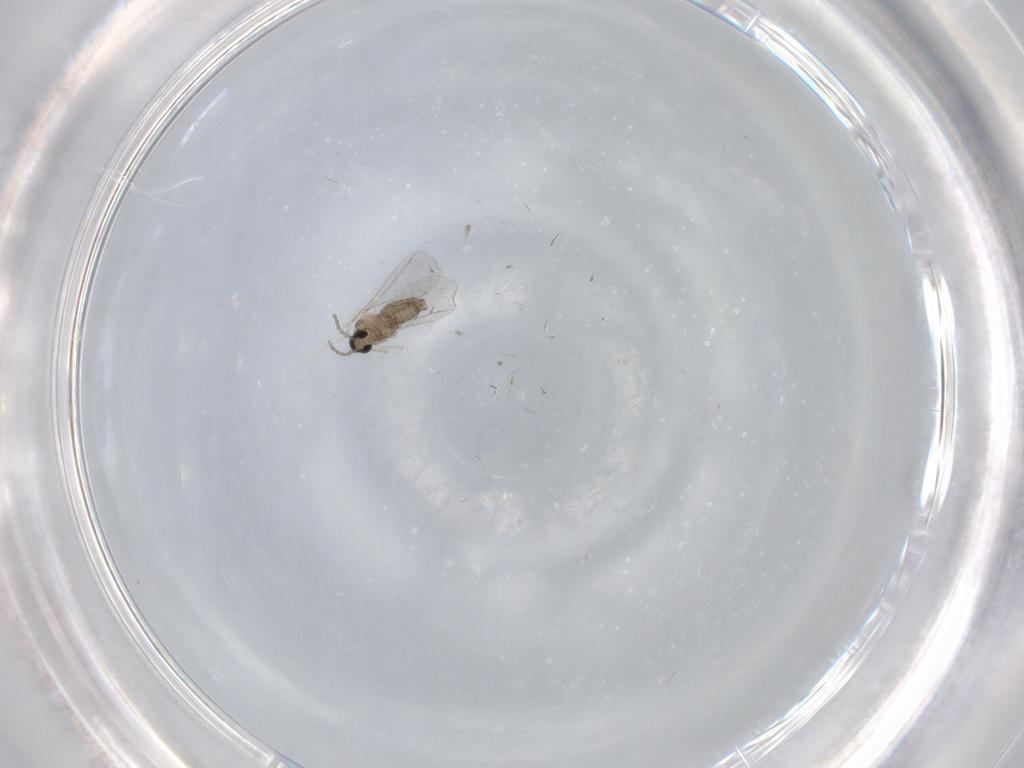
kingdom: Animalia
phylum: Arthropoda
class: Insecta
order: Diptera
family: Cecidomyiidae
